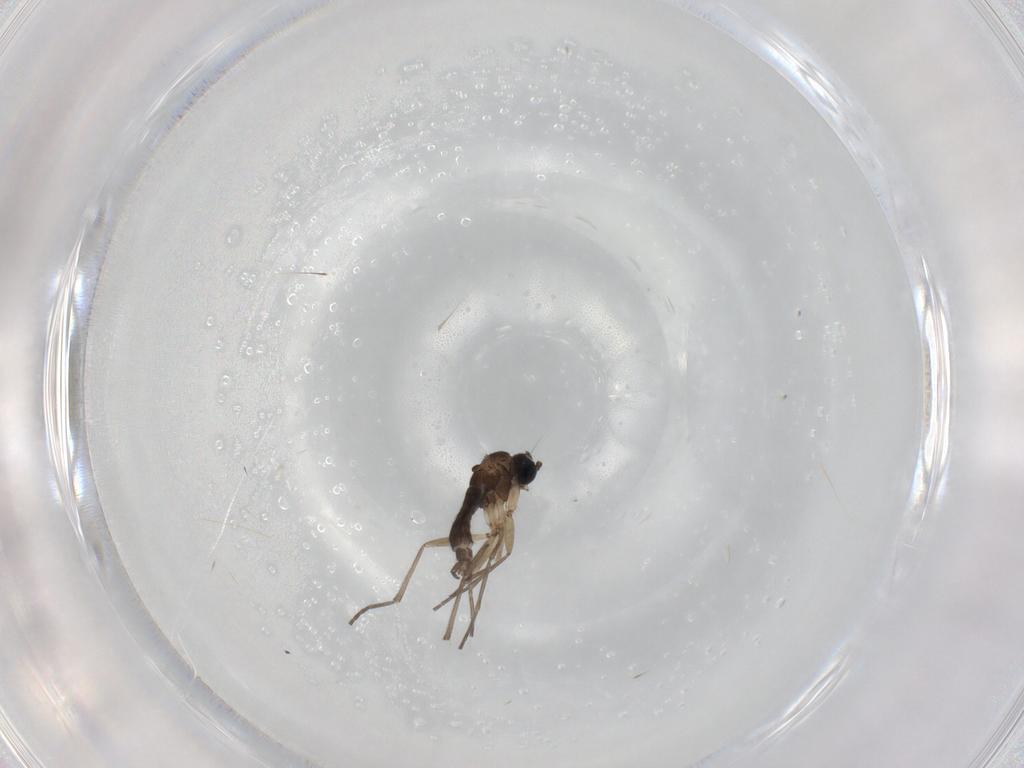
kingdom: Animalia
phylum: Arthropoda
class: Insecta
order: Diptera
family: Sciaridae
